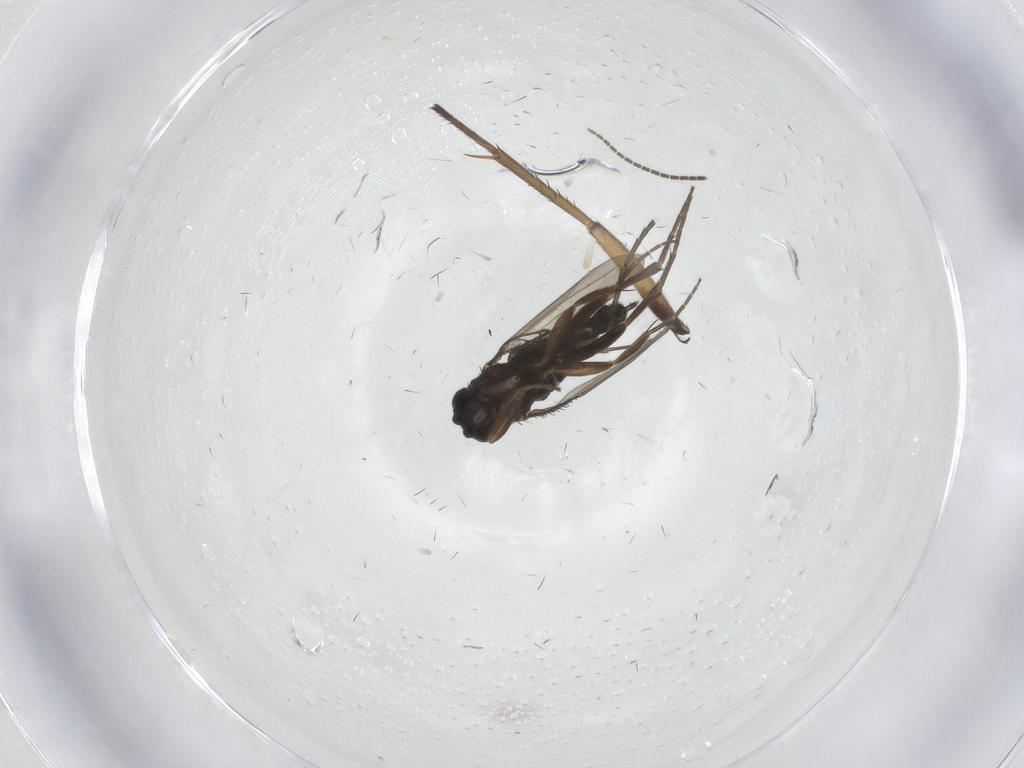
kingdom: Animalia
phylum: Arthropoda
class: Insecta
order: Diptera
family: Phoridae
